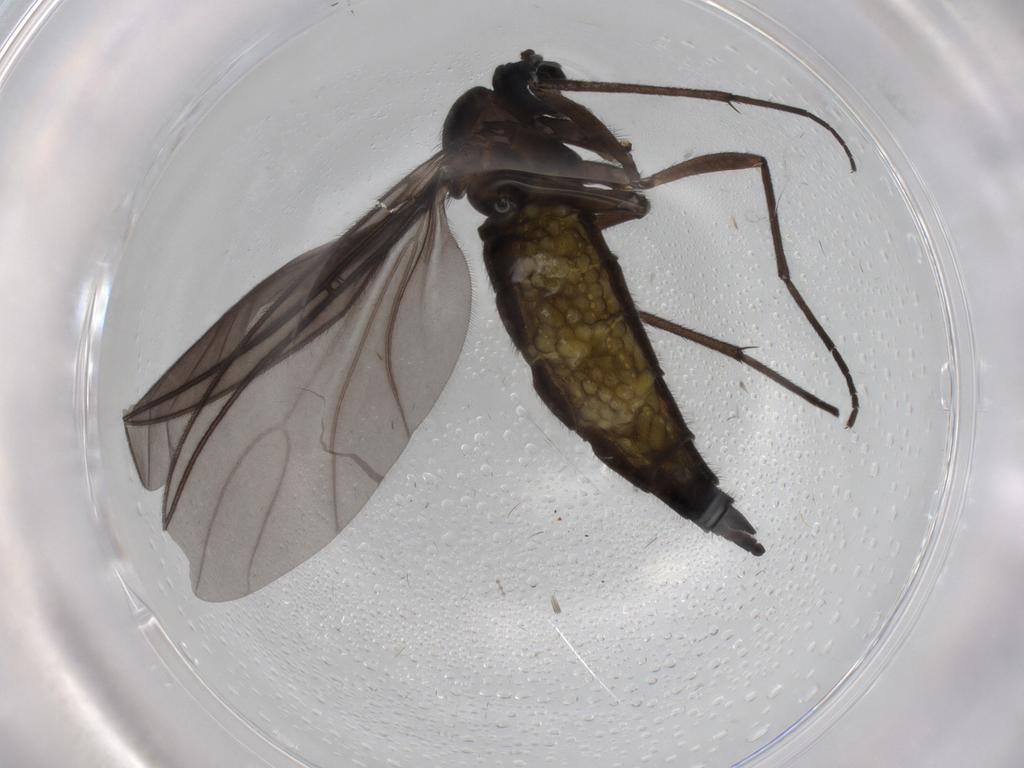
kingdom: Animalia
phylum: Arthropoda
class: Insecta
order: Diptera
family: Sciaridae
